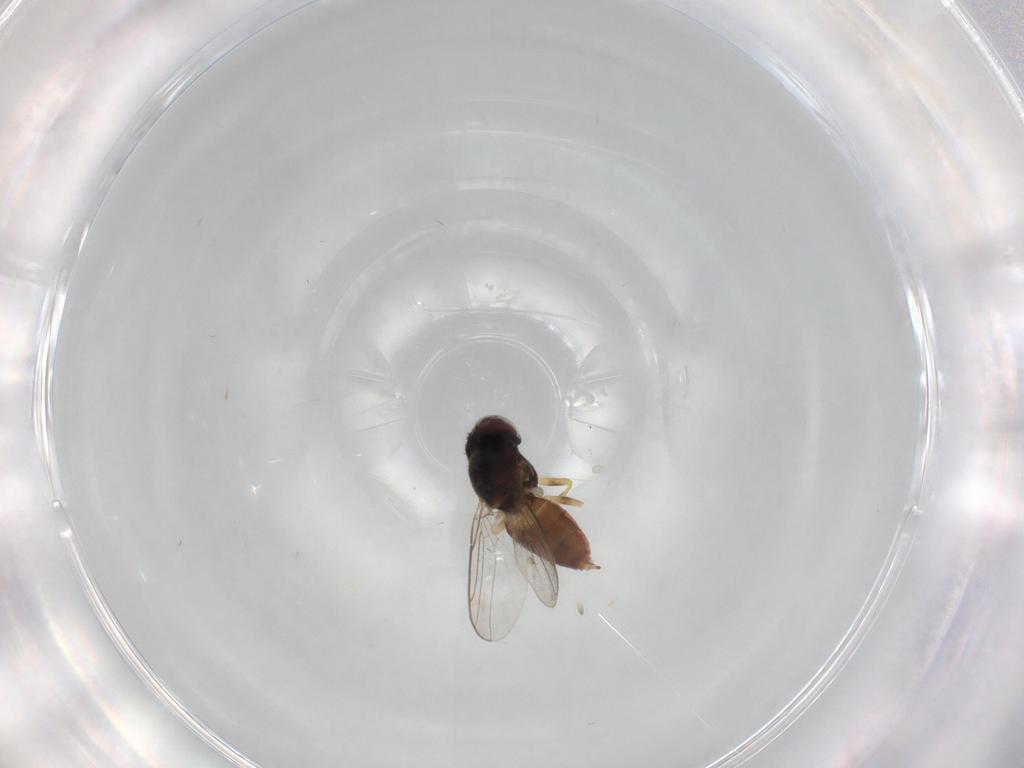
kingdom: Animalia
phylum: Arthropoda
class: Insecta
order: Diptera
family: Chloropidae
